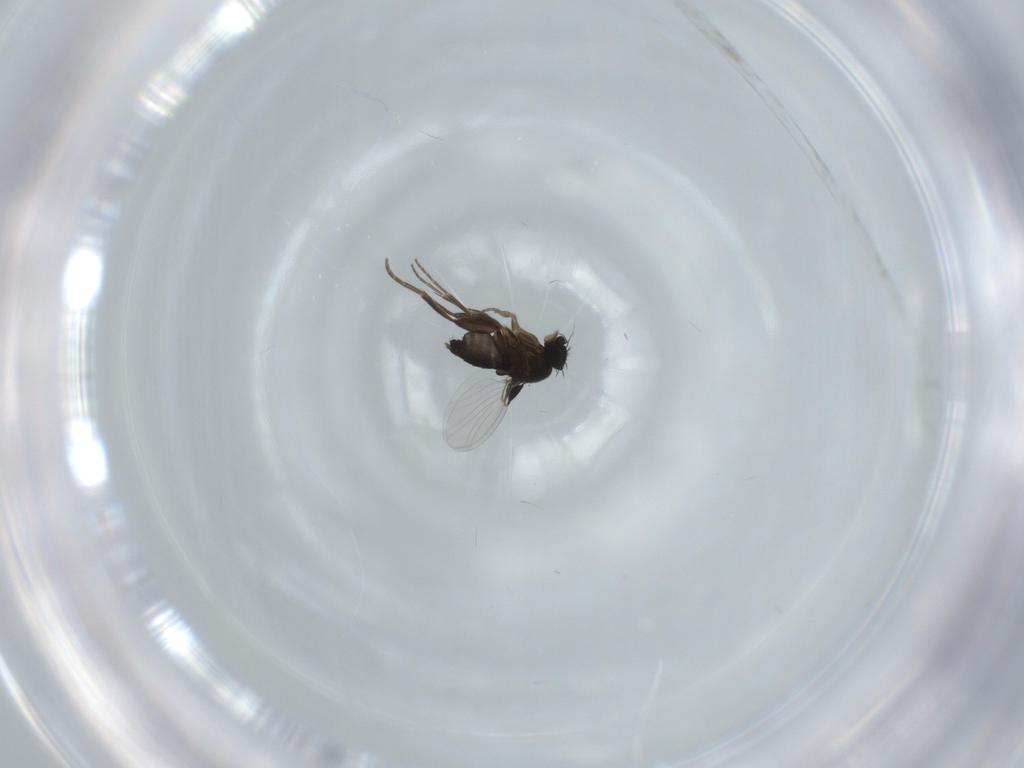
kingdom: Animalia
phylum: Arthropoda
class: Insecta
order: Diptera
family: Phoridae
